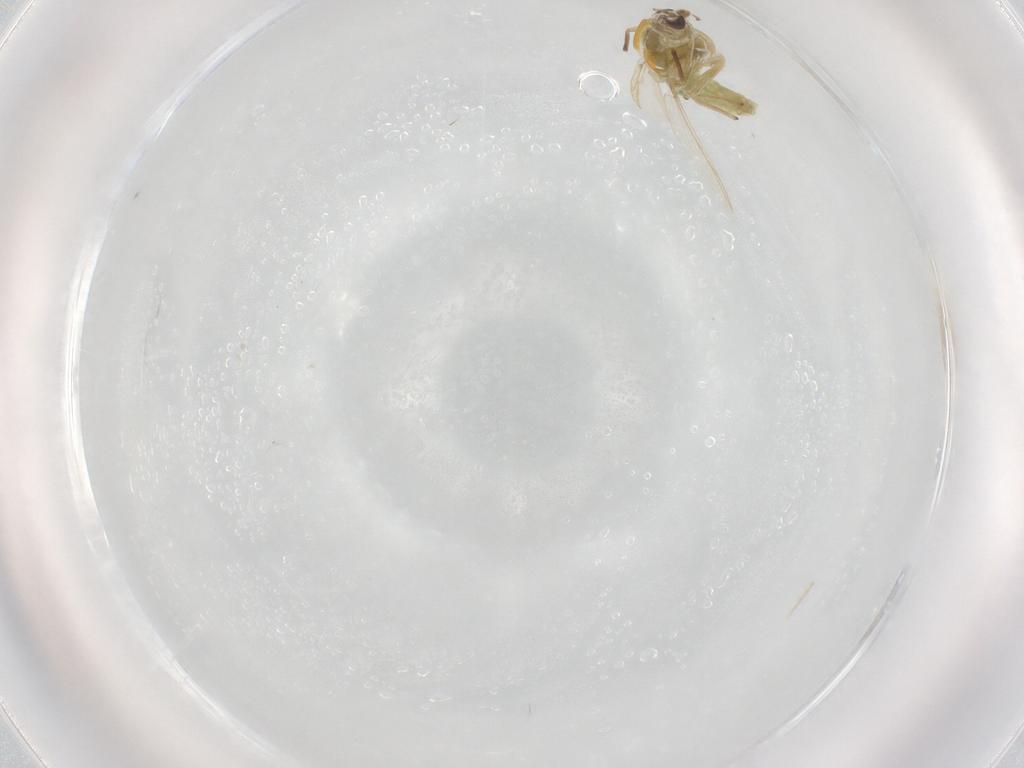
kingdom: Animalia
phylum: Arthropoda
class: Insecta
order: Diptera
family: Chironomidae
